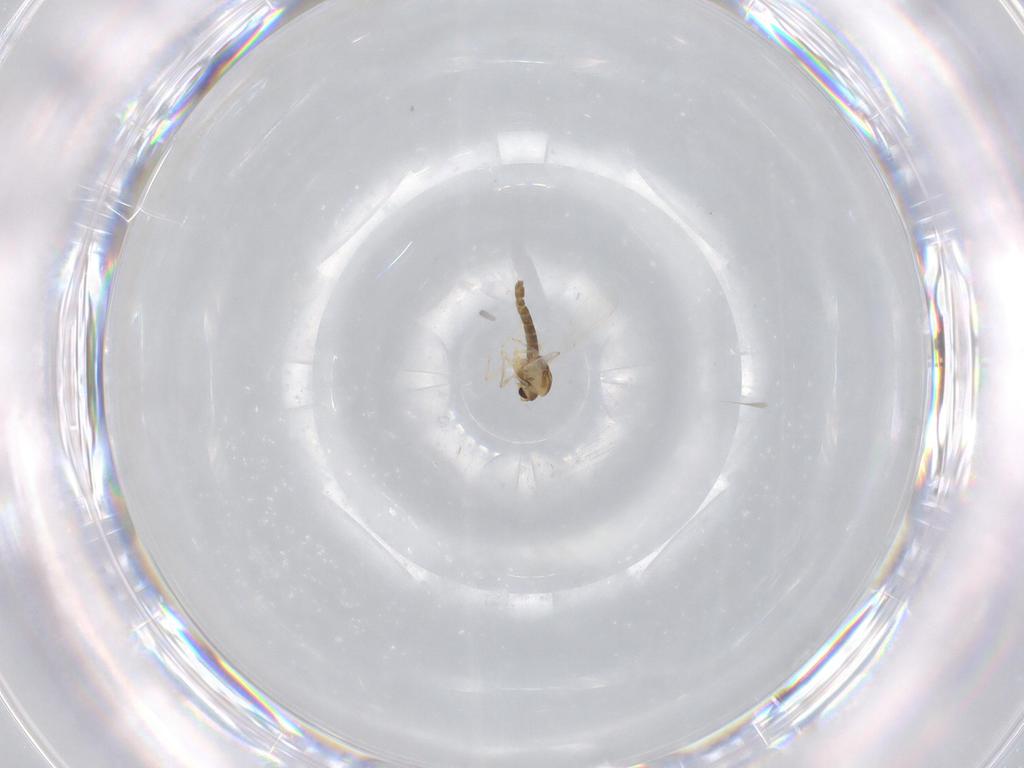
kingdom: Animalia
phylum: Arthropoda
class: Insecta
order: Diptera
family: Chironomidae
